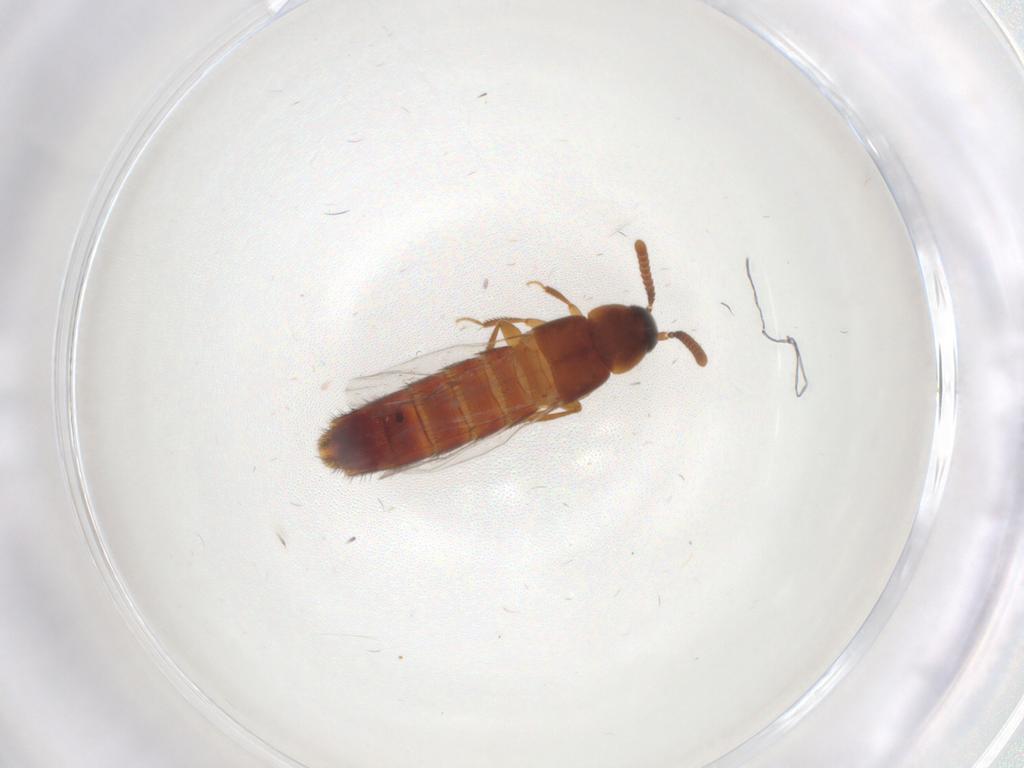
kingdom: Animalia
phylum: Arthropoda
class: Insecta
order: Coleoptera
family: Staphylinidae
